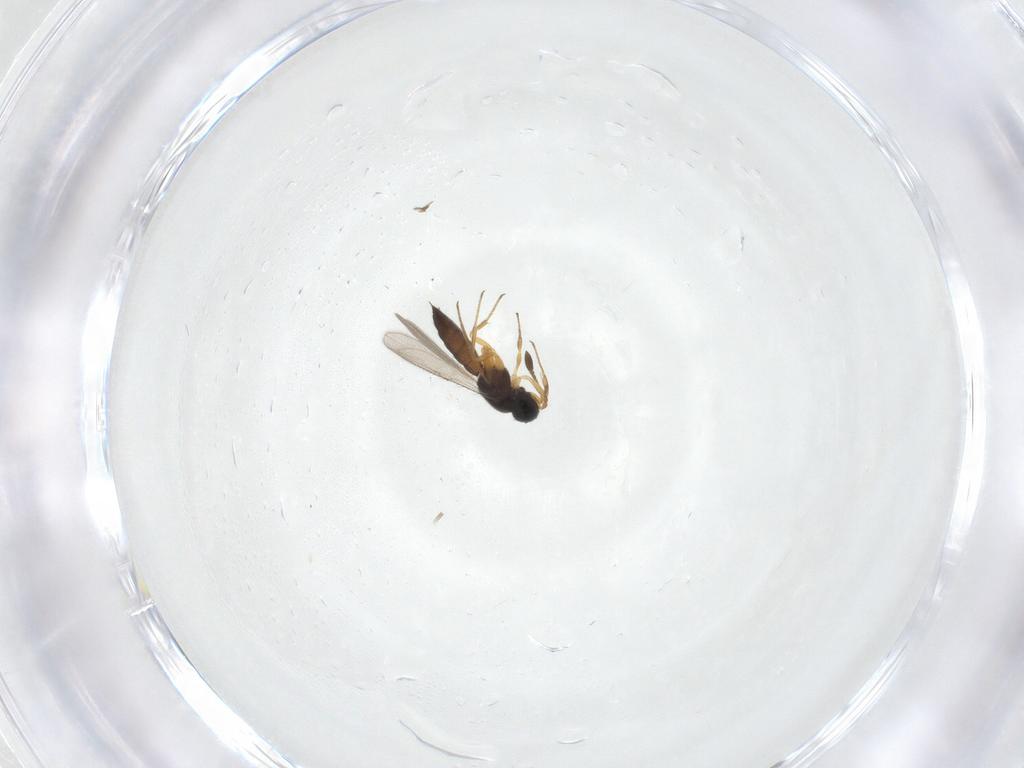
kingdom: Animalia
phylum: Arthropoda
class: Insecta
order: Hymenoptera
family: Scelionidae
